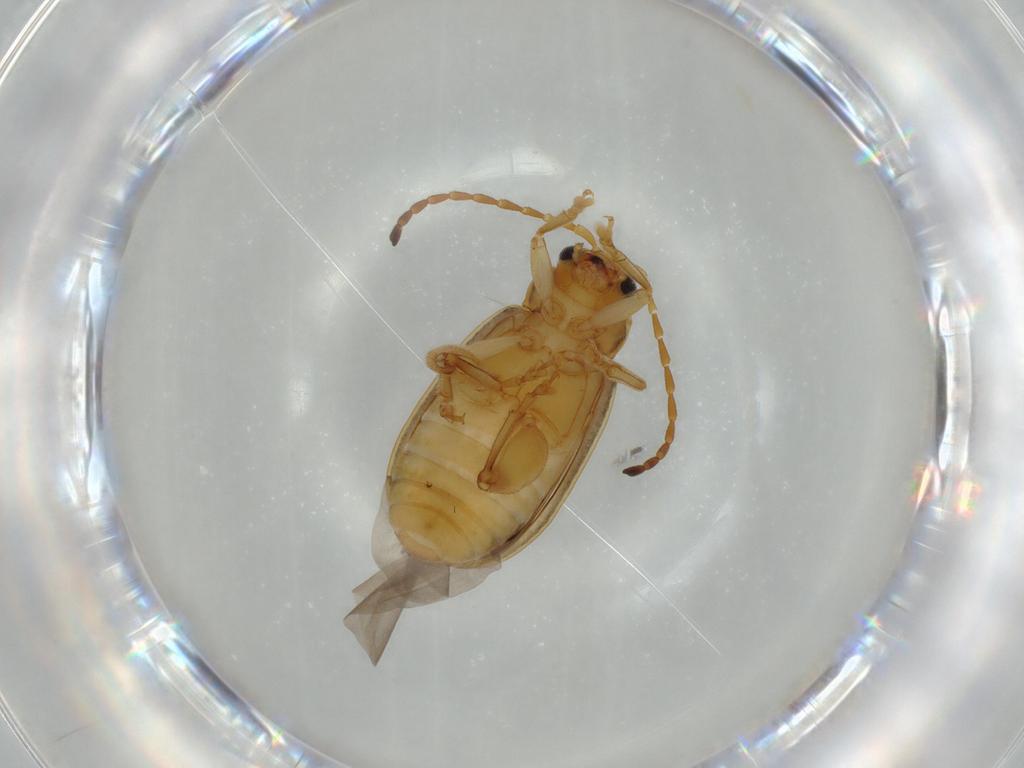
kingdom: Animalia
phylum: Arthropoda
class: Insecta
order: Coleoptera
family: Chrysomelidae
